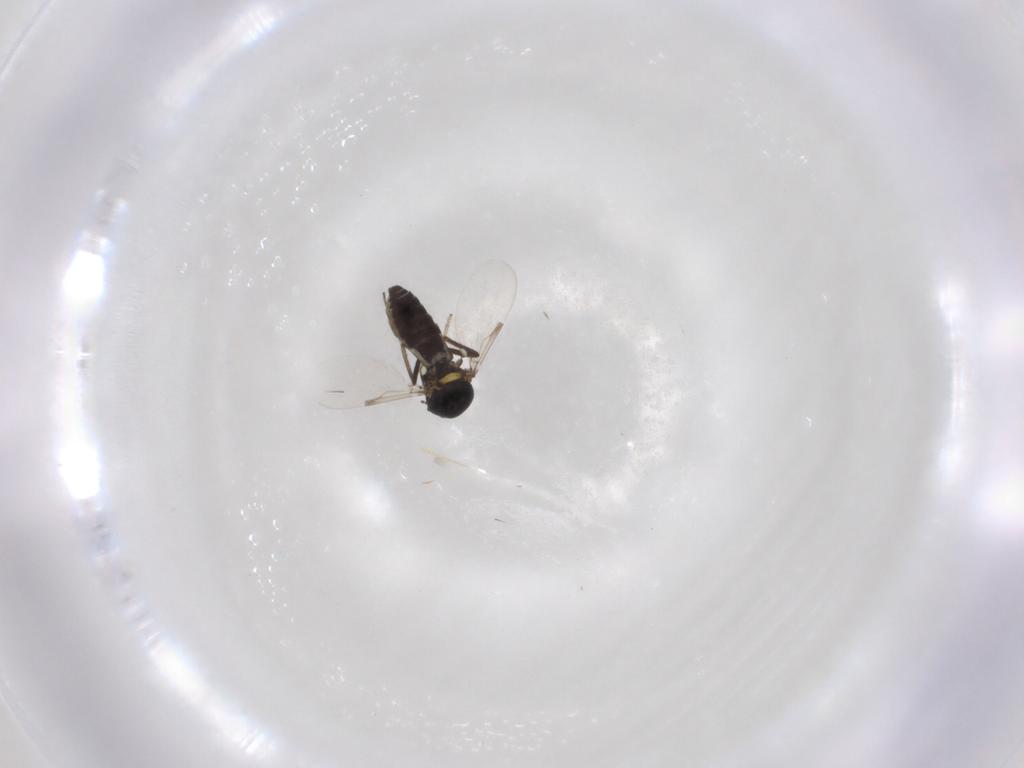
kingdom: Animalia
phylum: Arthropoda
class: Insecta
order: Diptera
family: Ceratopogonidae
